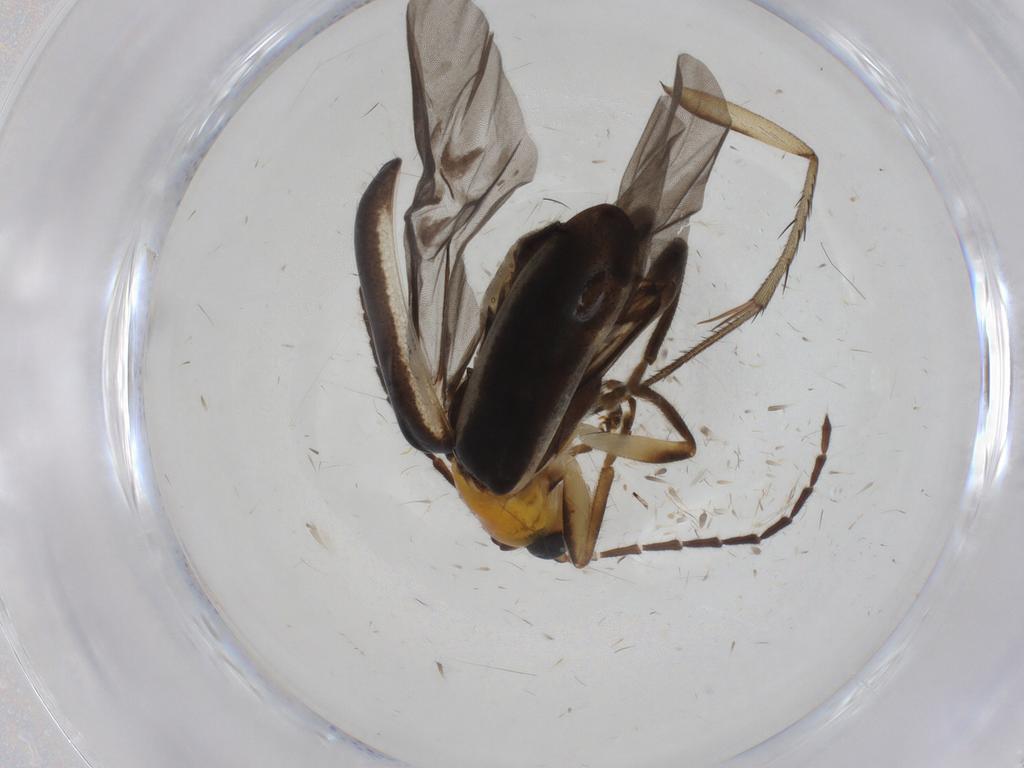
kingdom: Animalia
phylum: Arthropoda
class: Insecta
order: Coleoptera
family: Chrysomelidae
